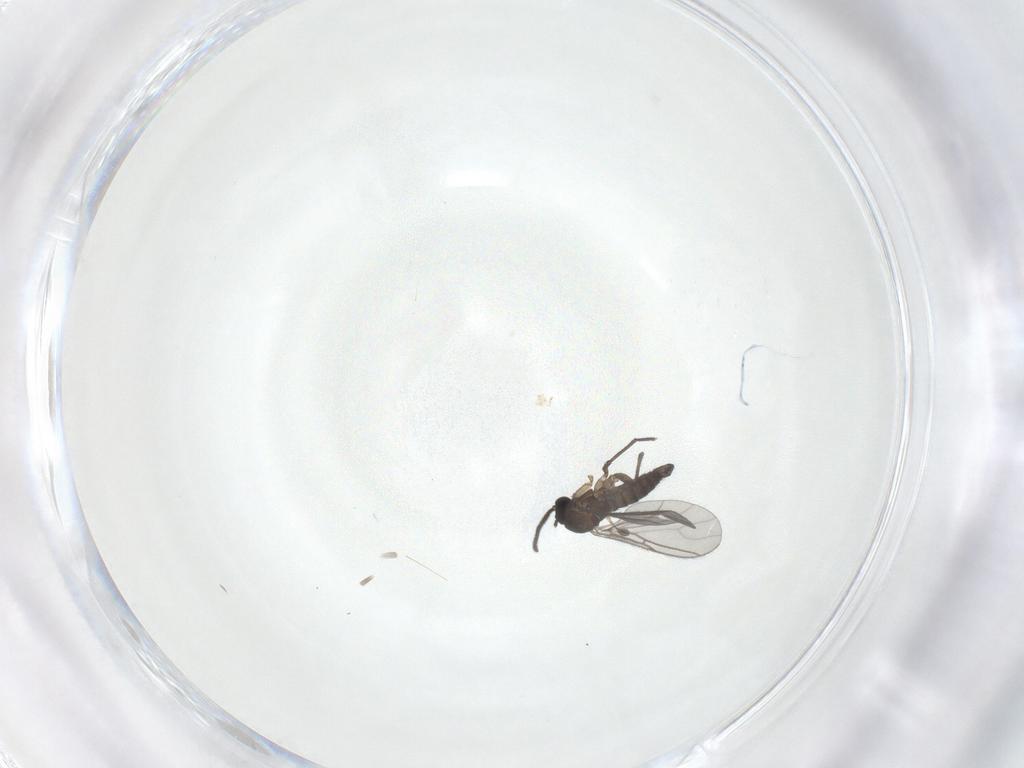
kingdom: Animalia
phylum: Arthropoda
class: Insecta
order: Diptera
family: Sciaridae
